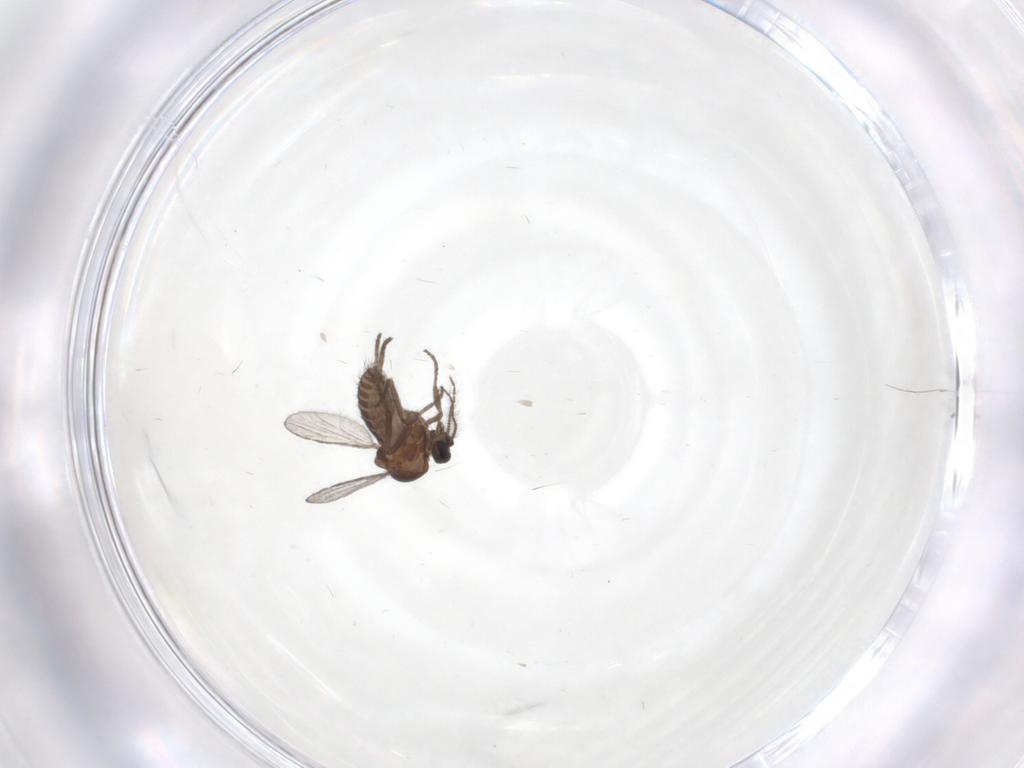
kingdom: Animalia
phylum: Arthropoda
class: Insecta
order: Diptera
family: Ceratopogonidae
